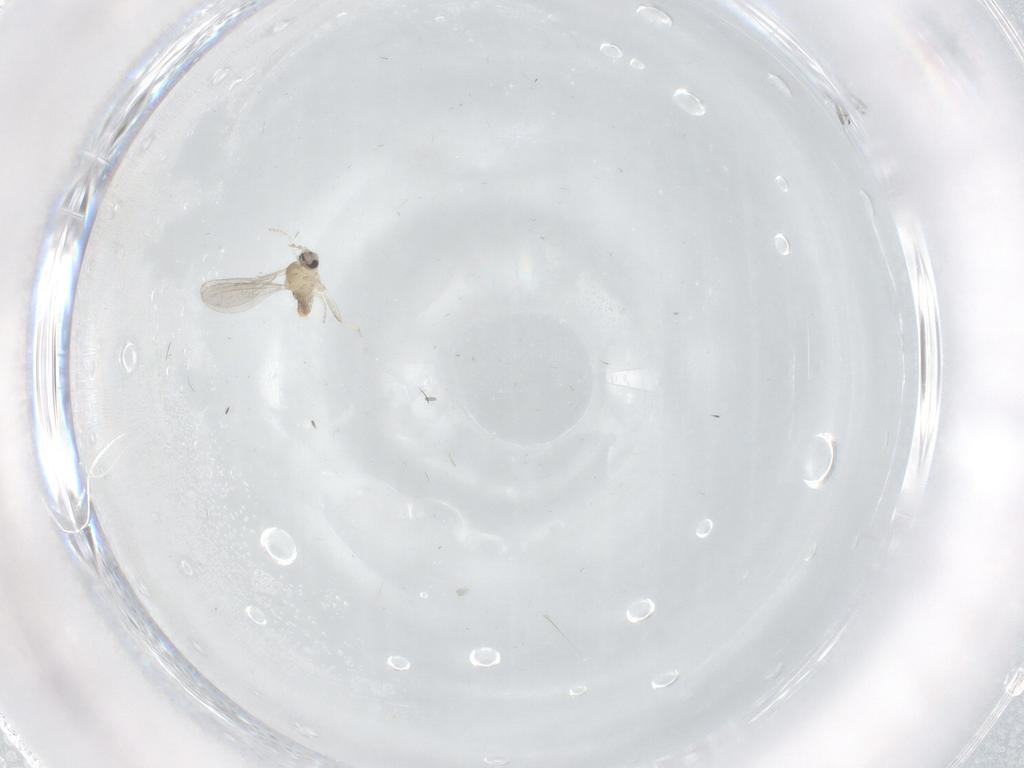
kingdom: Animalia
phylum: Arthropoda
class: Insecta
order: Diptera
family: Cecidomyiidae
